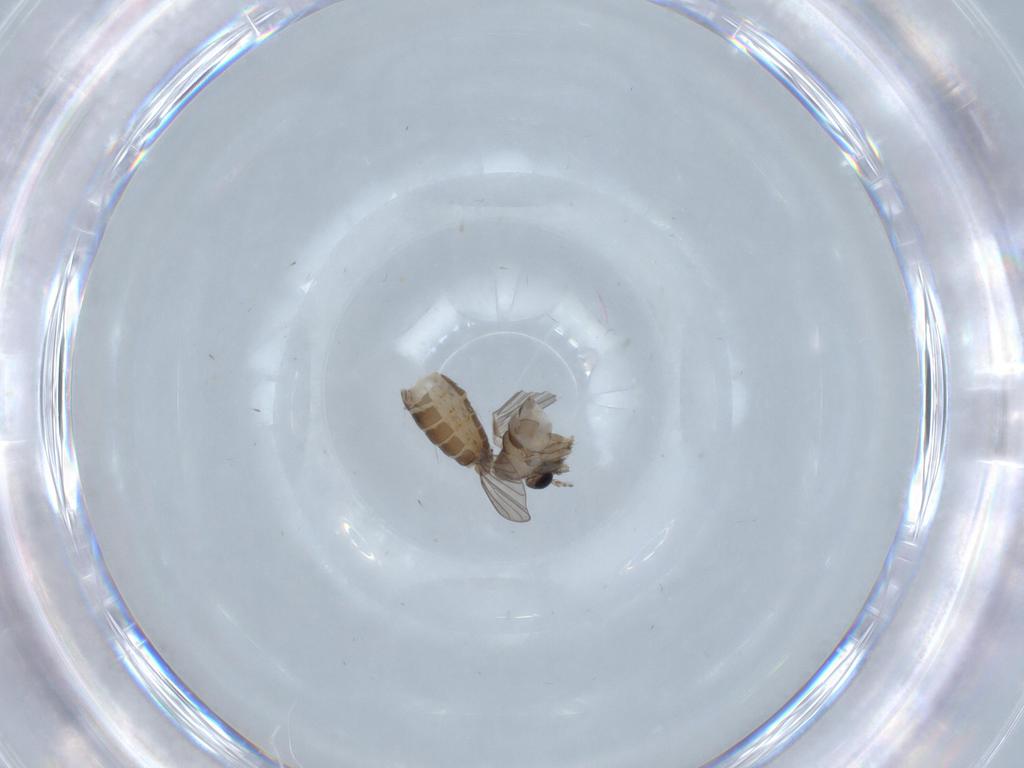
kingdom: Animalia
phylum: Arthropoda
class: Insecta
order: Diptera
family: Psychodidae
